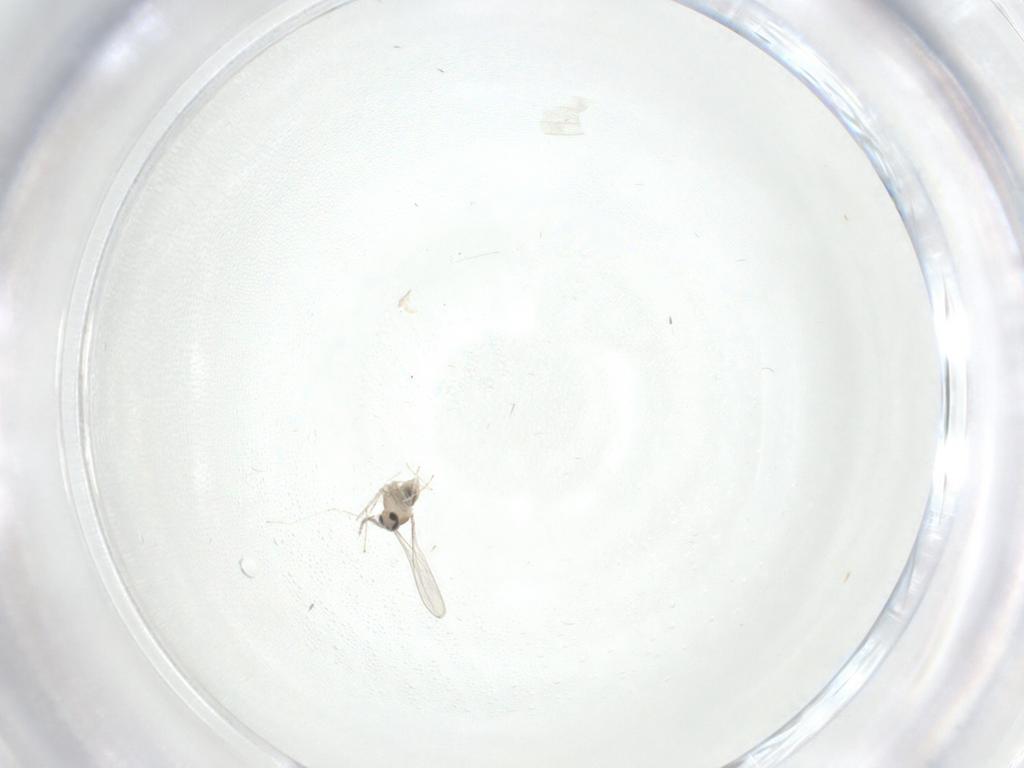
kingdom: Animalia
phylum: Arthropoda
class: Insecta
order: Diptera
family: Cecidomyiidae
